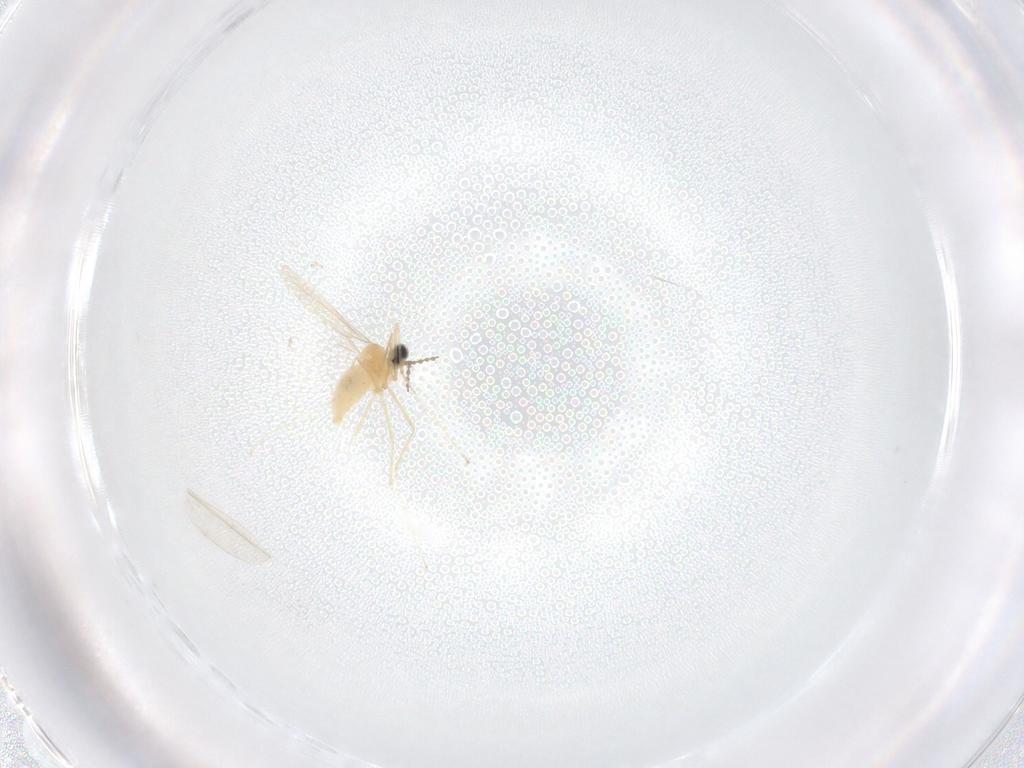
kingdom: Animalia
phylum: Arthropoda
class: Insecta
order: Diptera
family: Cecidomyiidae
